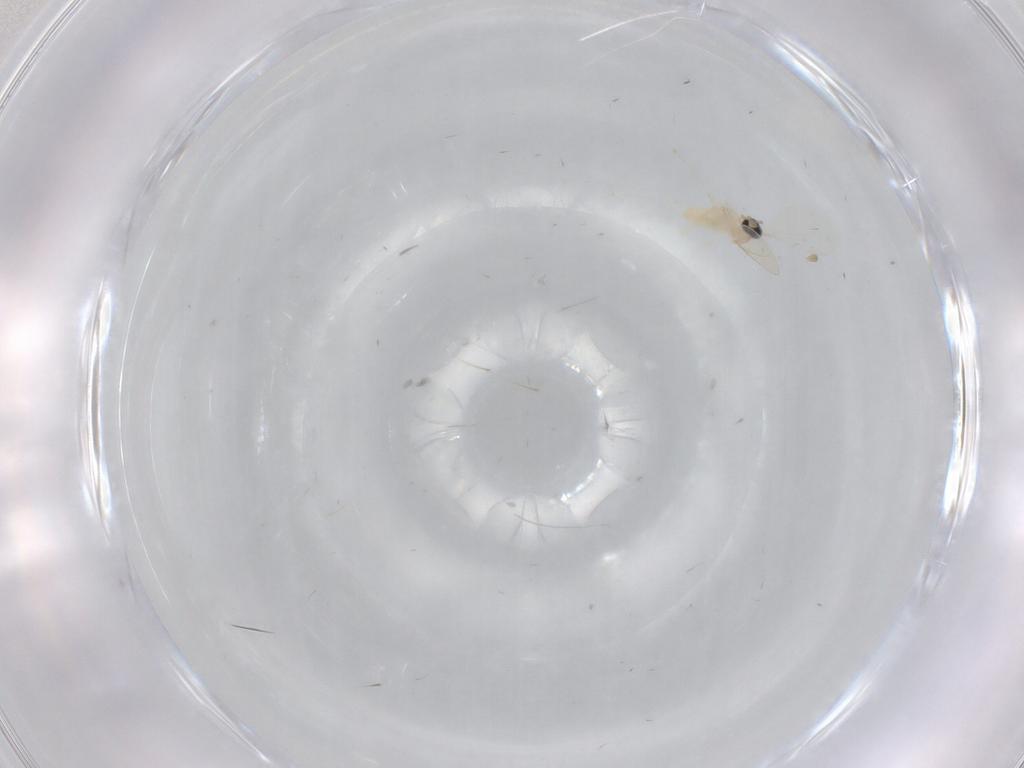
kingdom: Animalia
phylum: Arthropoda
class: Insecta
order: Diptera
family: Cecidomyiidae
